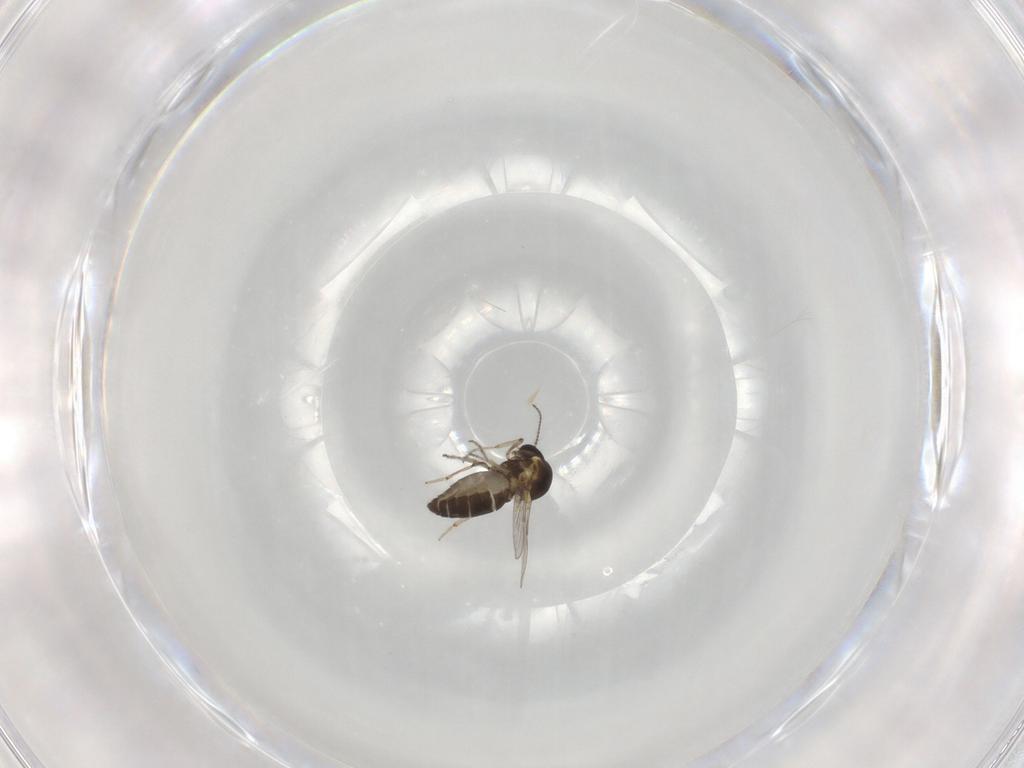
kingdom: Animalia
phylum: Arthropoda
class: Insecta
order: Diptera
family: Ceratopogonidae
